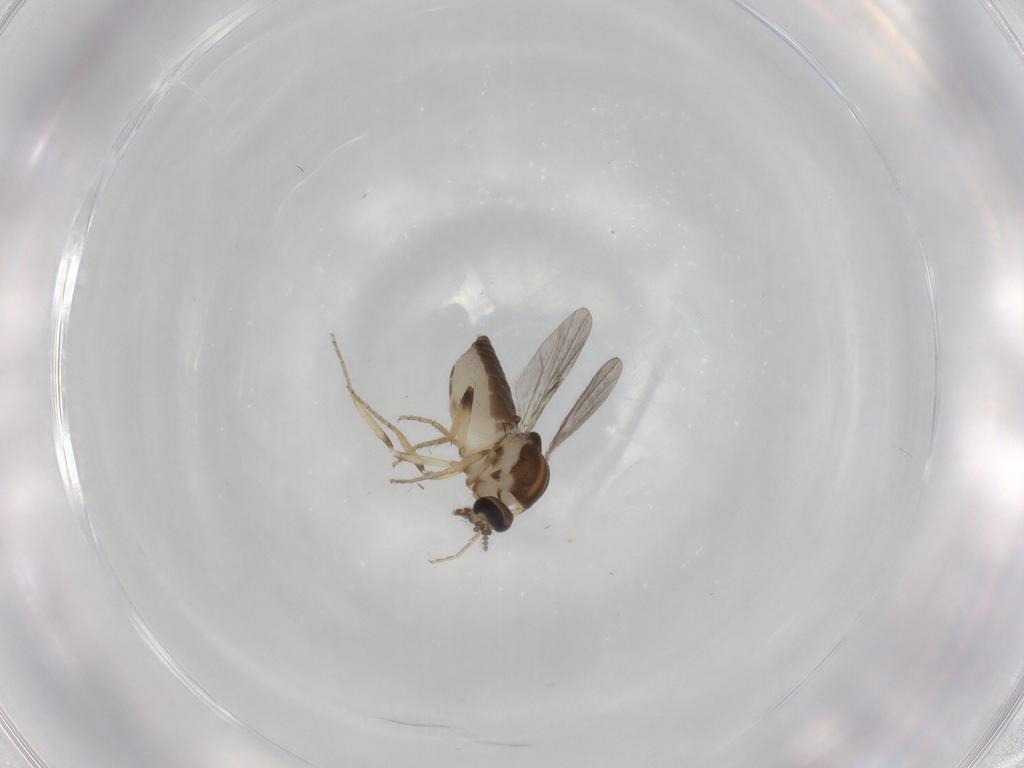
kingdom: Animalia
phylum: Arthropoda
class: Insecta
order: Diptera
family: Ceratopogonidae
